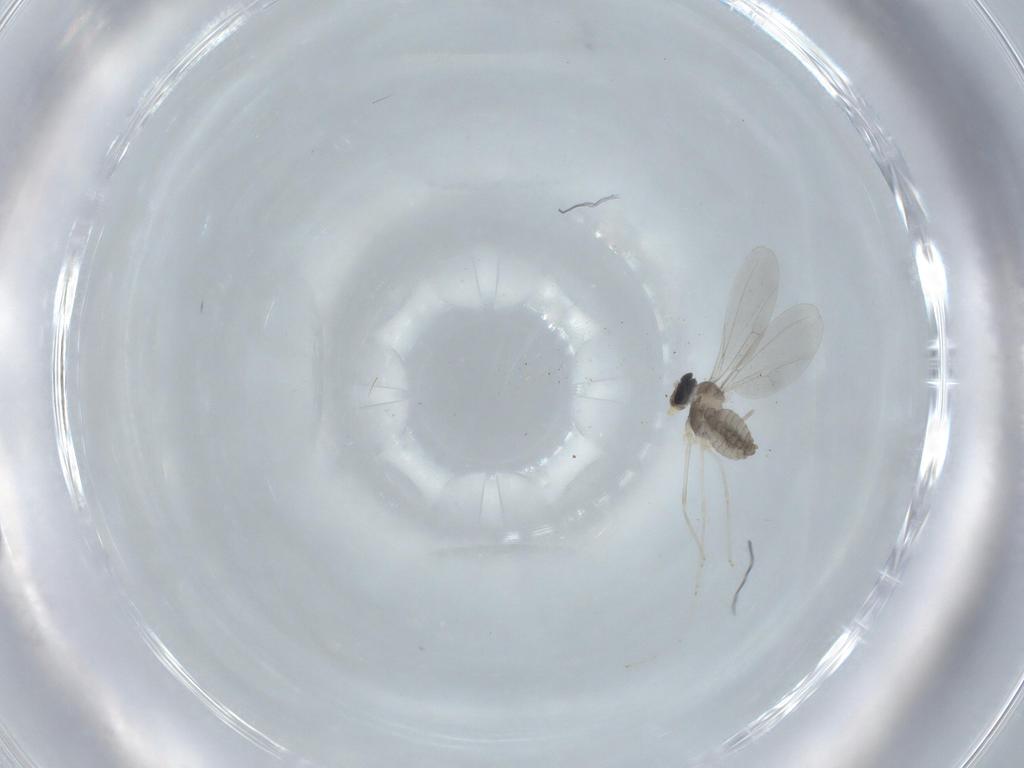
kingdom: Animalia
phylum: Arthropoda
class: Insecta
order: Diptera
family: Cecidomyiidae
